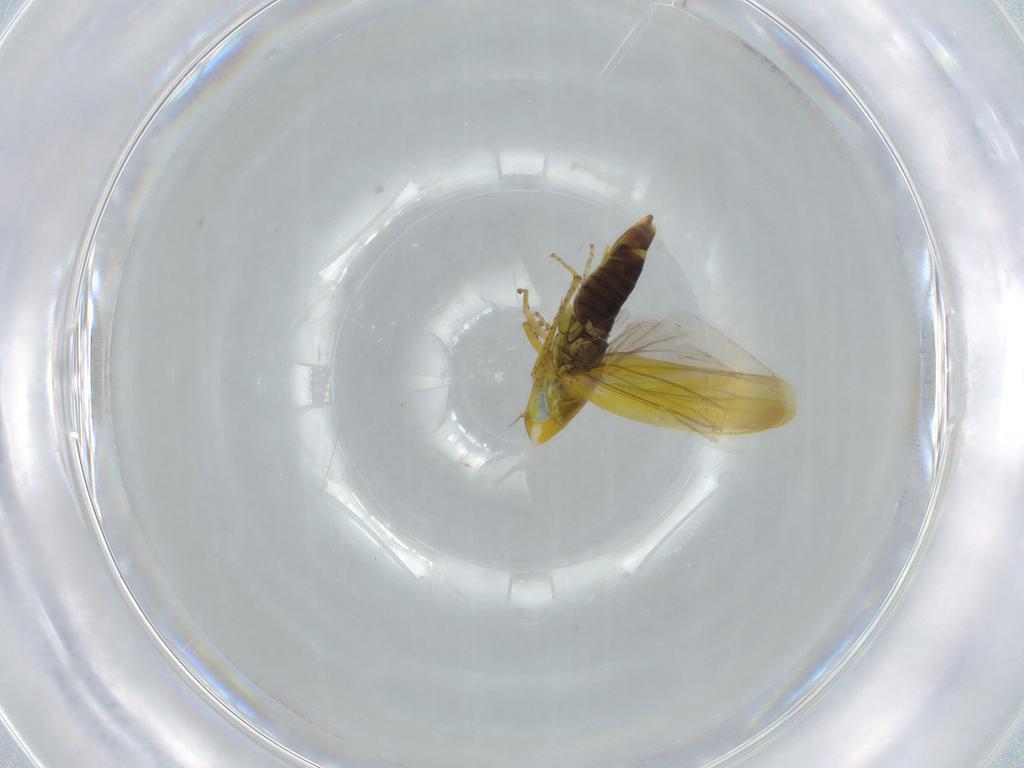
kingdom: Animalia
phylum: Arthropoda
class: Insecta
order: Hemiptera
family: Cicadellidae
